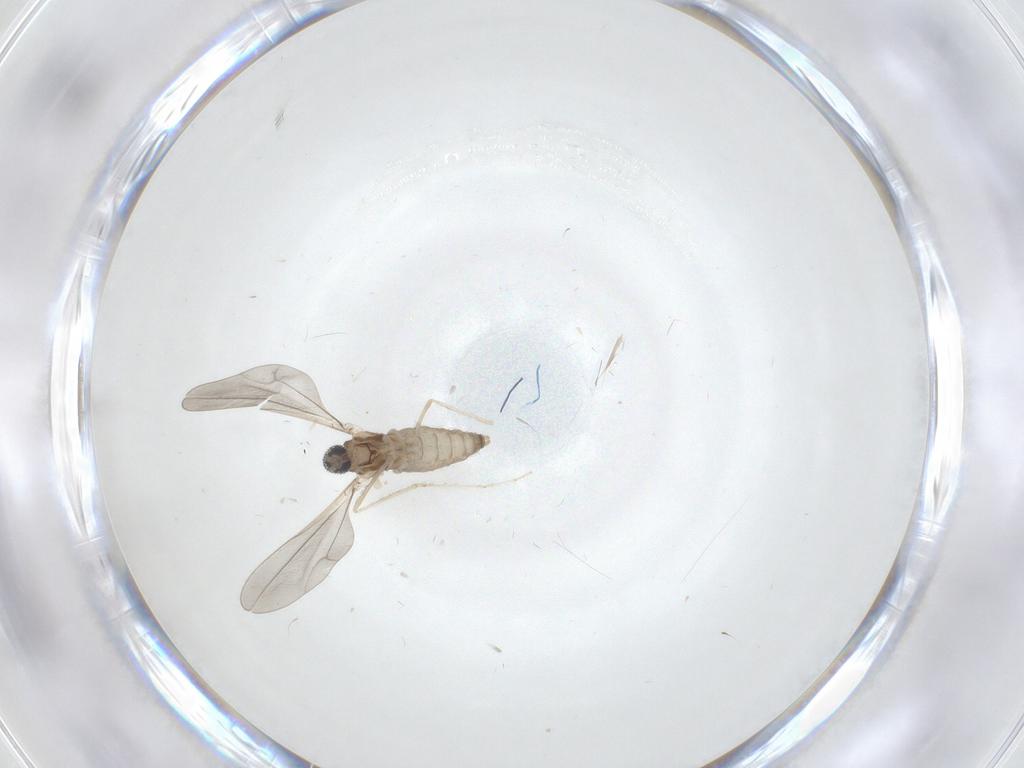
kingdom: Animalia
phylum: Arthropoda
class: Insecta
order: Diptera
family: Cecidomyiidae
